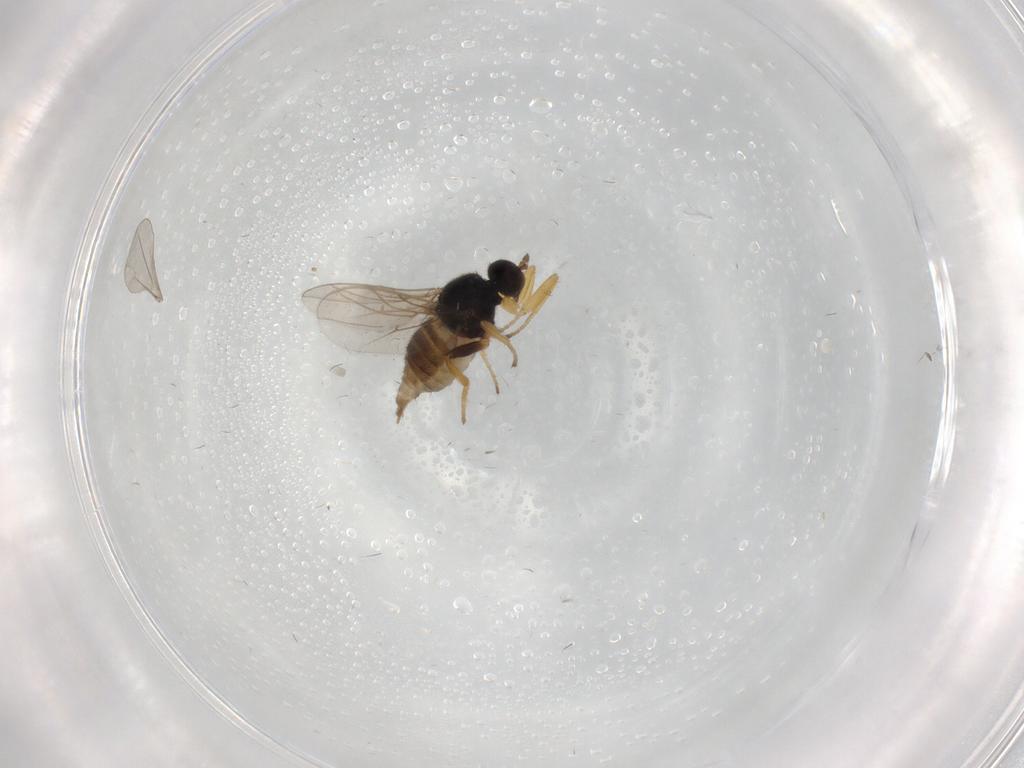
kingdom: Animalia
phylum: Arthropoda
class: Insecta
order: Diptera
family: Hybotidae
